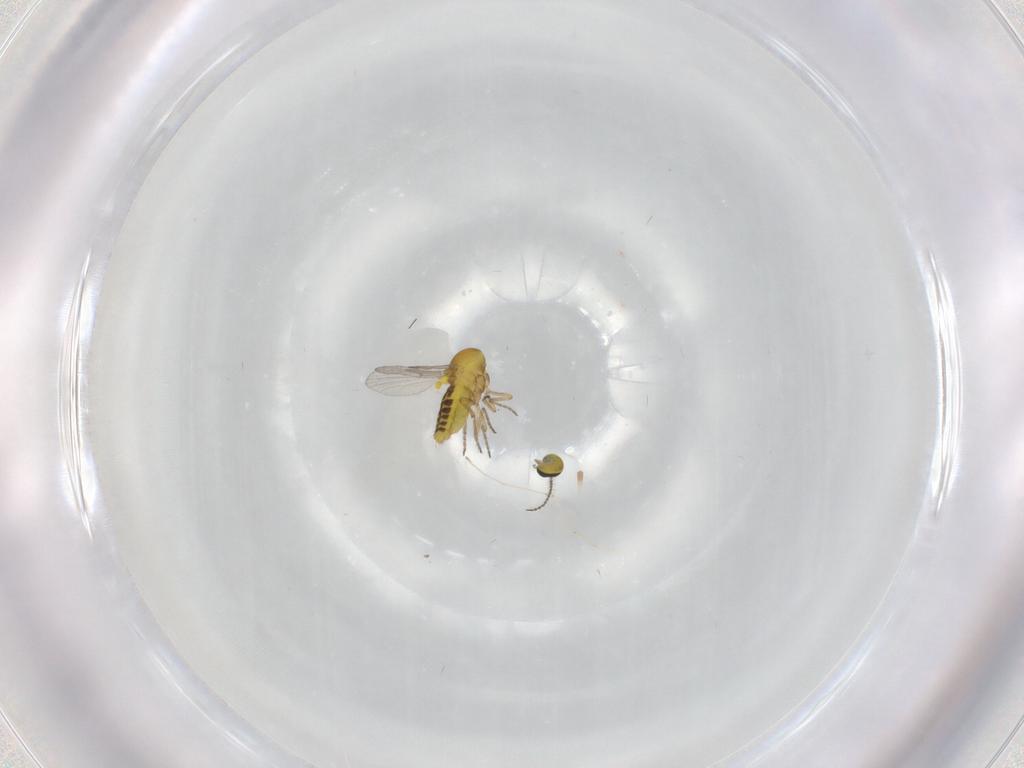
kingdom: Animalia
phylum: Arthropoda
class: Insecta
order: Diptera
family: Ceratopogonidae
